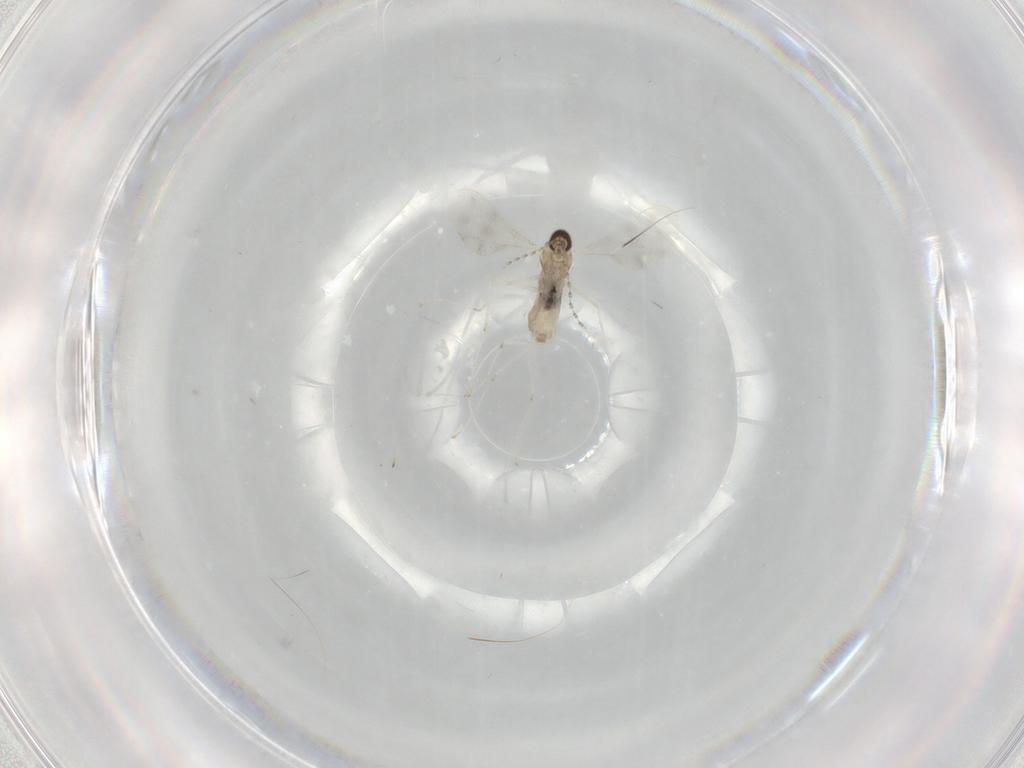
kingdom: Animalia
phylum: Arthropoda
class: Insecta
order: Diptera
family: Cecidomyiidae
